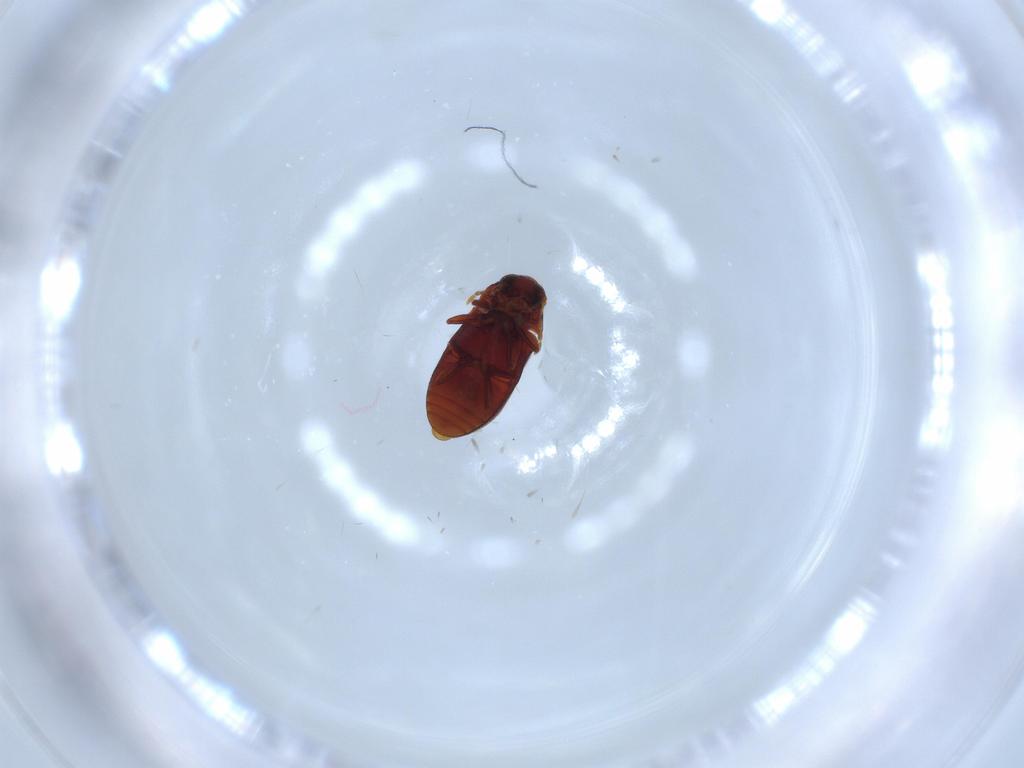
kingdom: Animalia
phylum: Arthropoda
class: Insecta
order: Coleoptera
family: Ptinidae
